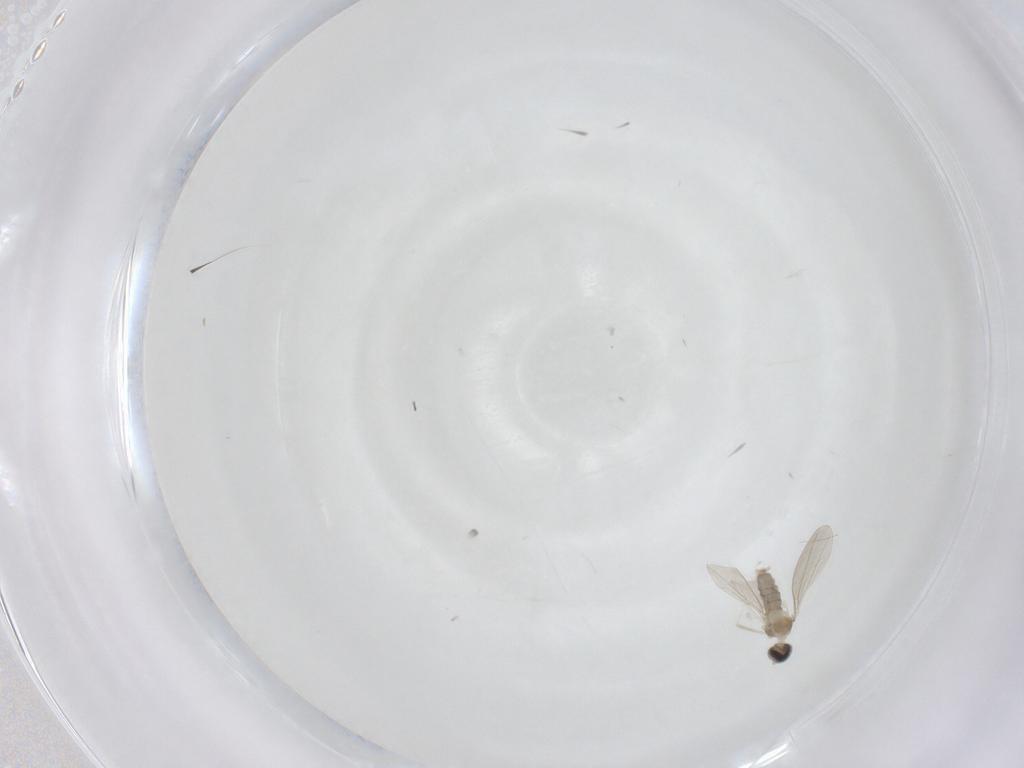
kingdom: Animalia
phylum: Arthropoda
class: Insecta
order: Diptera
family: Cecidomyiidae
